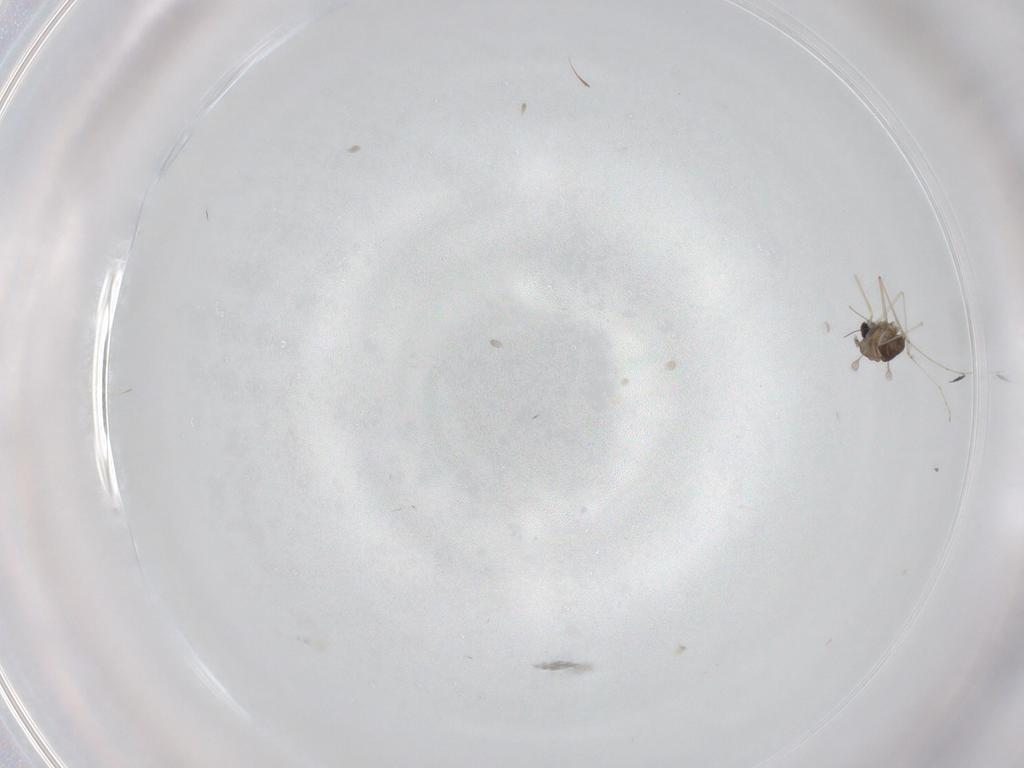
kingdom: Animalia
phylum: Arthropoda
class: Insecta
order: Diptera
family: Cecidomyiidae
